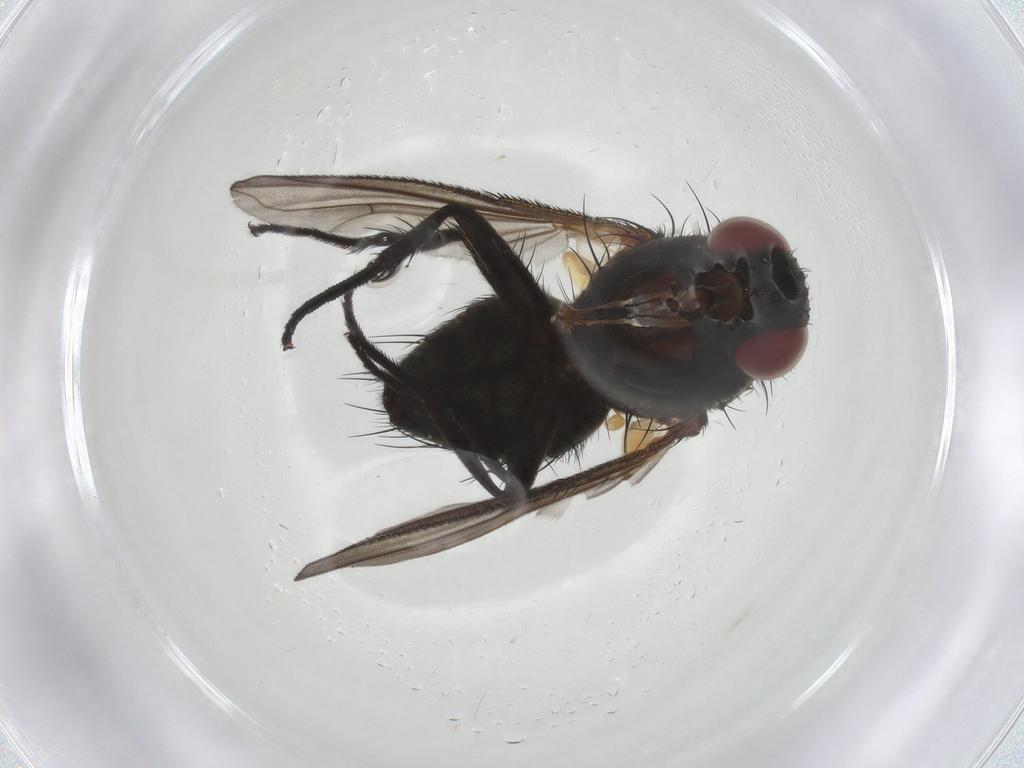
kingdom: Animalia
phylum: Arthropoda
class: Insecta
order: Diptera
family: Tachinidae
